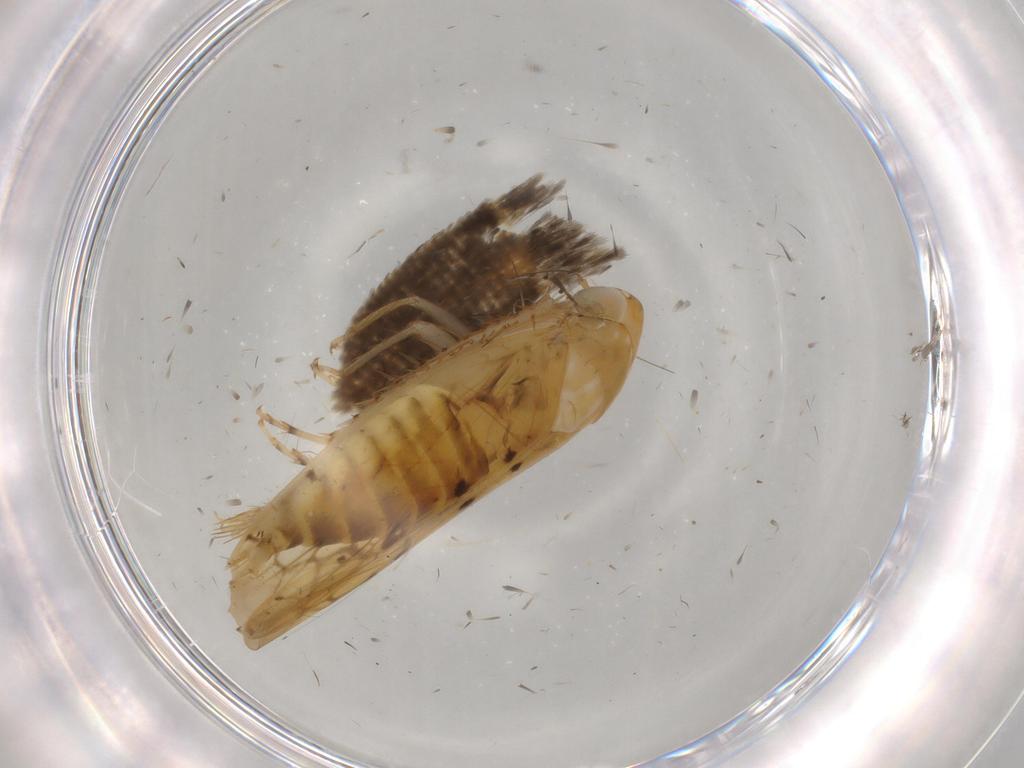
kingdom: Animalia
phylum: Arthropoda
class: Insecta
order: Hemiptera
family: Cicadellidae
